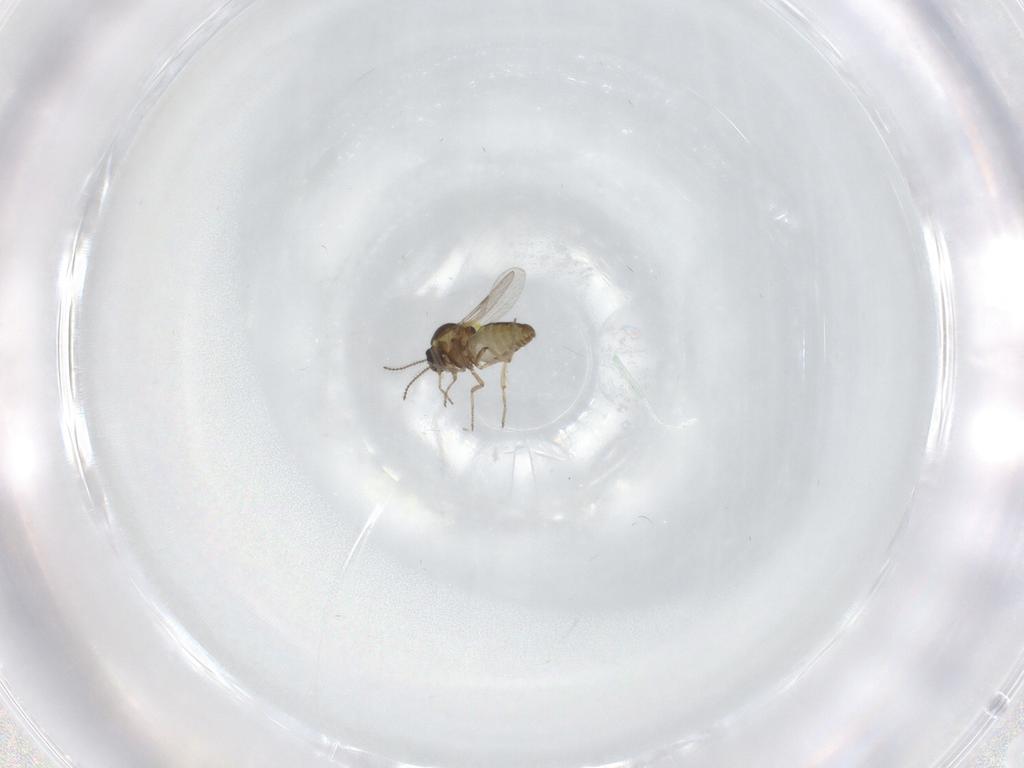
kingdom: Animalia
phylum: Arthropoda
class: Insecta
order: Diptera
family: Ceratopogonidae
